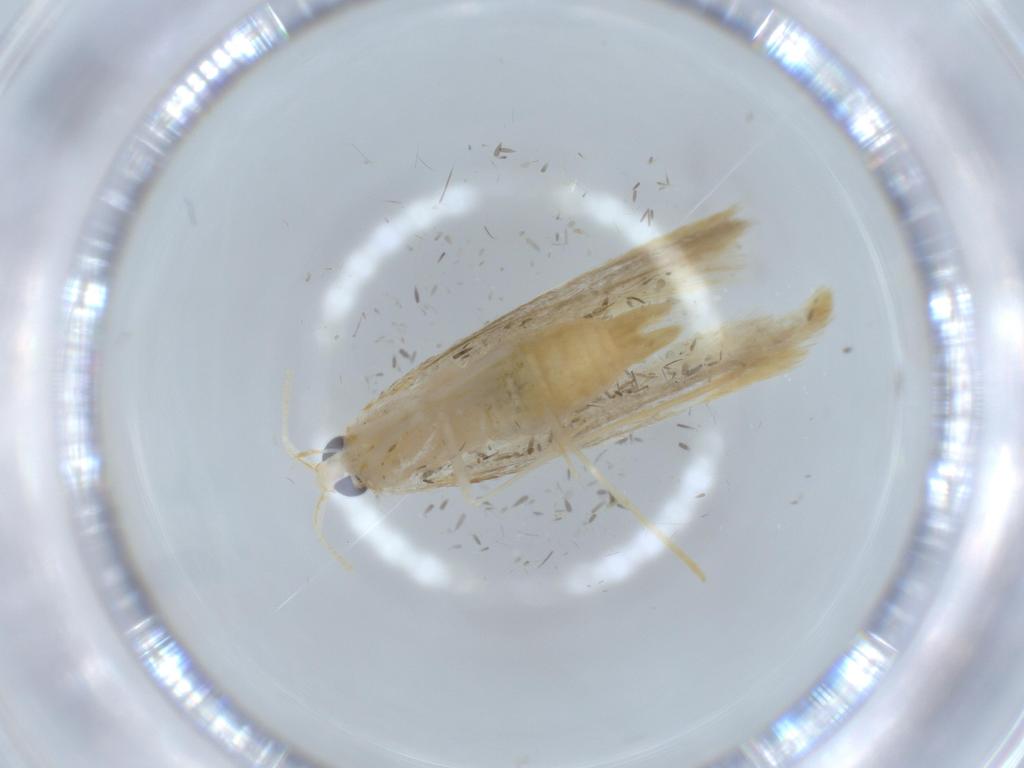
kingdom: Animalia
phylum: Arthropoda
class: Insecta
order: Lepidoptera
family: Lyonetiidae
